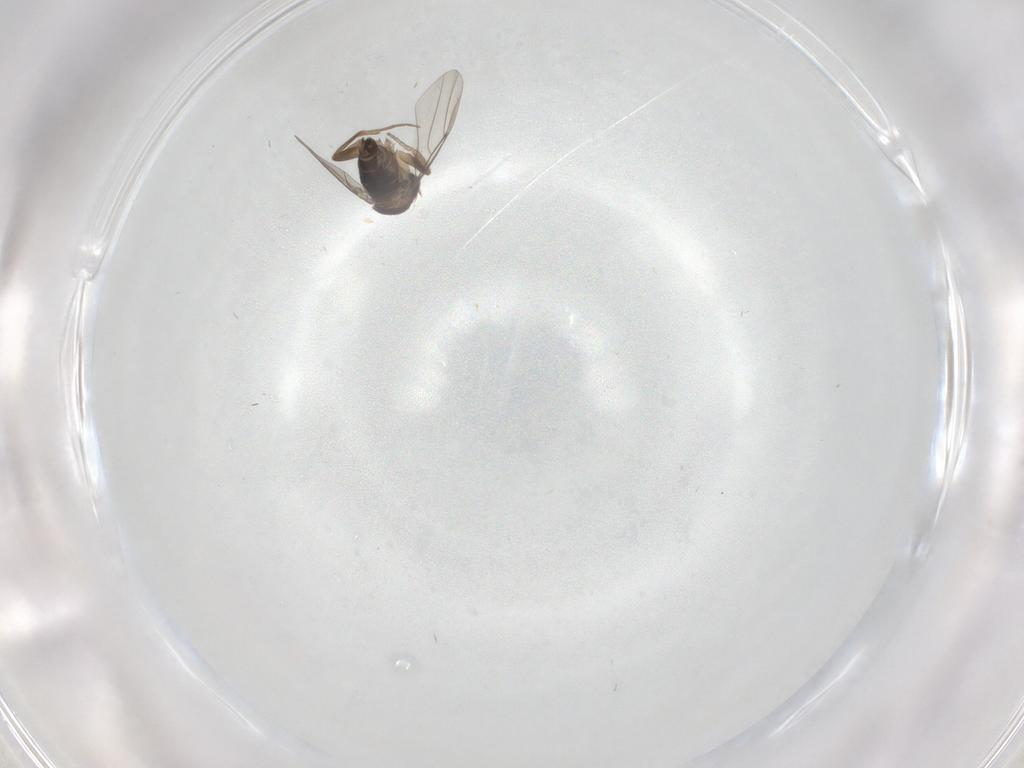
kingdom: Animalia
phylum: Arthropoda
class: Insecta
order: Diptera
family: Phoridae
